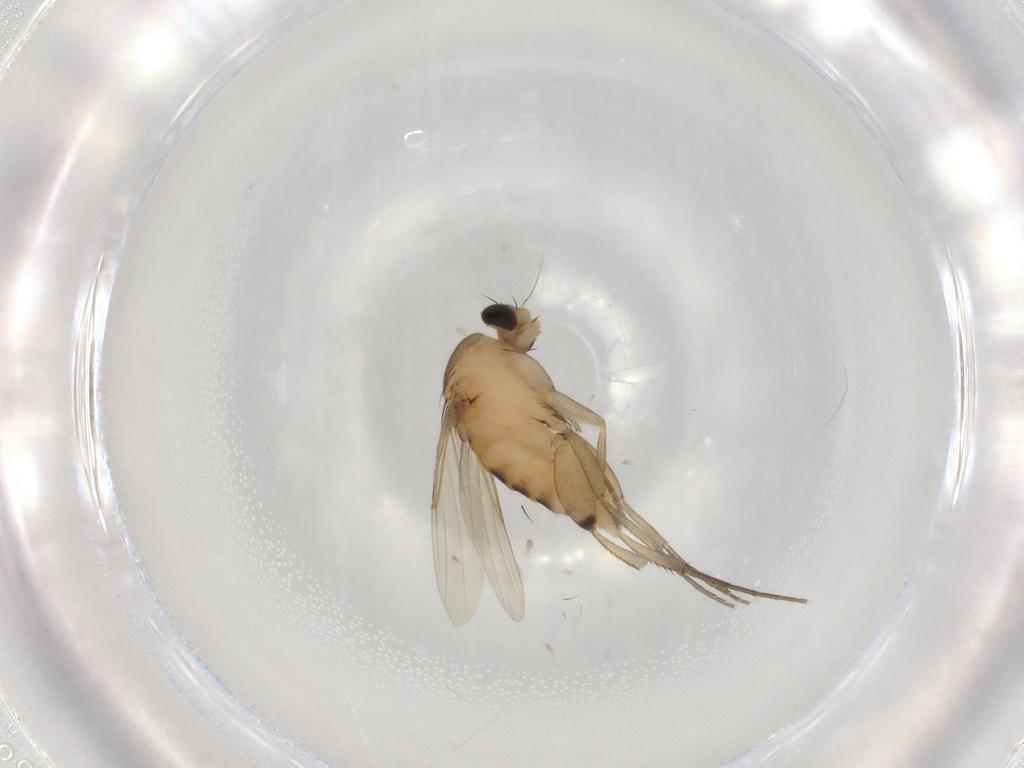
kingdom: Animalia
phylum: Arthropoda
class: Insecta
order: Diptera
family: Phoridae
